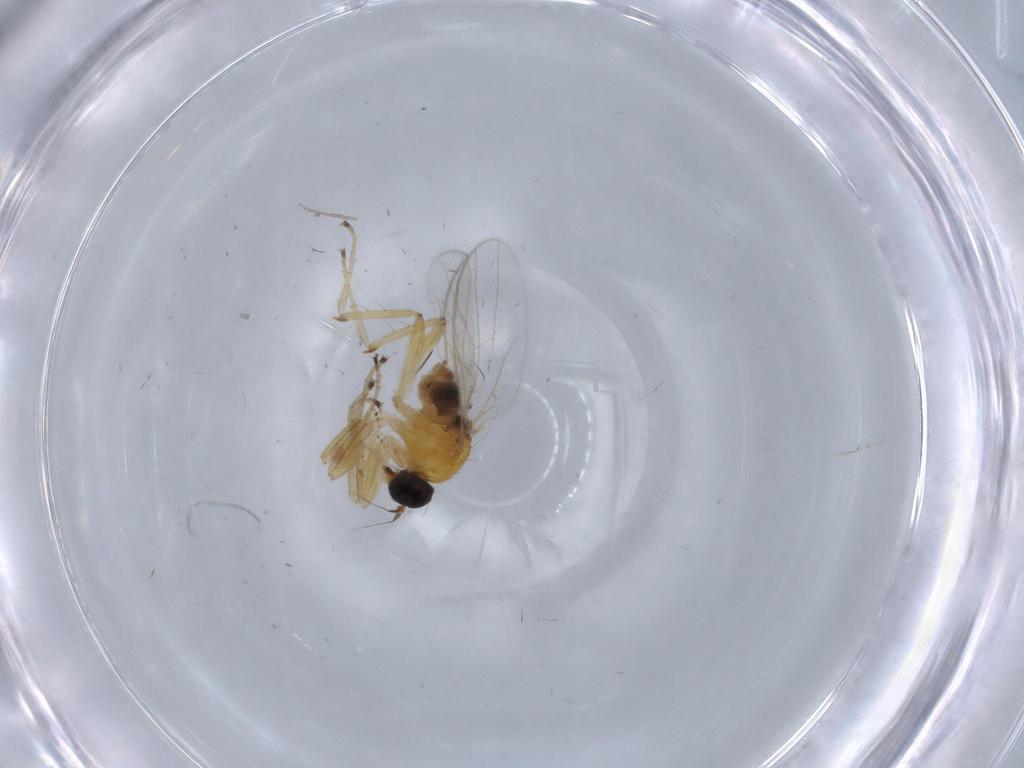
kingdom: Animalia
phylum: Arthropoda
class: Insecta
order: Diptera
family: Hybotidae
